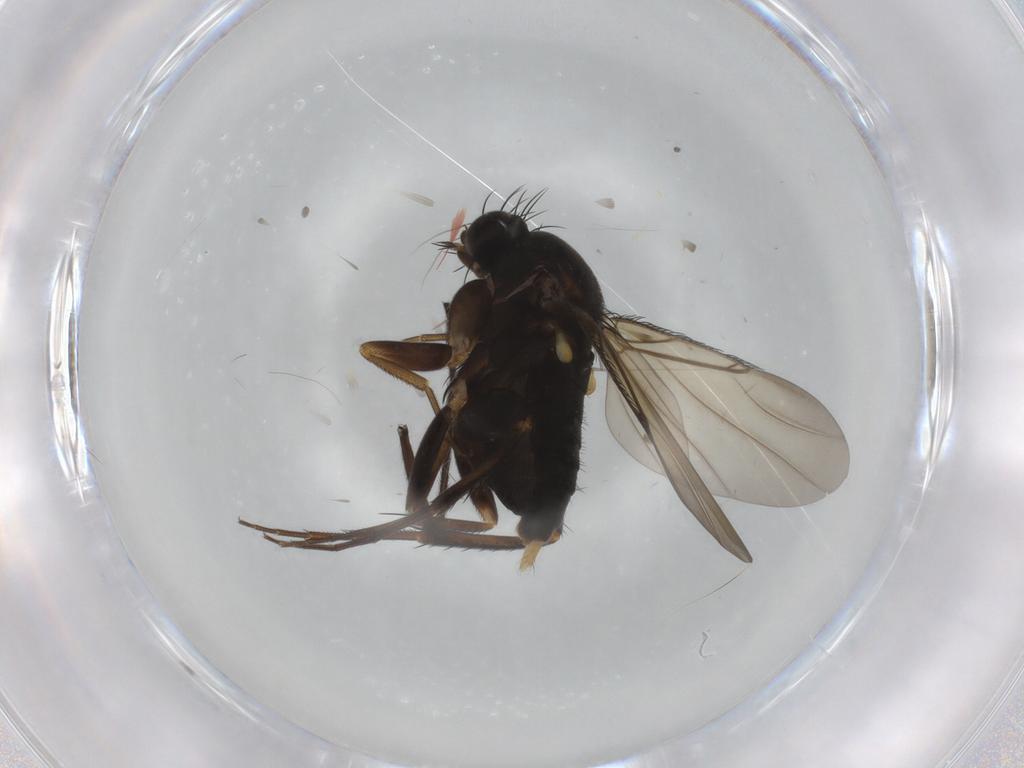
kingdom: Animalia
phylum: Arthropoda
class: Insecta
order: Diptera
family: Phoridae
